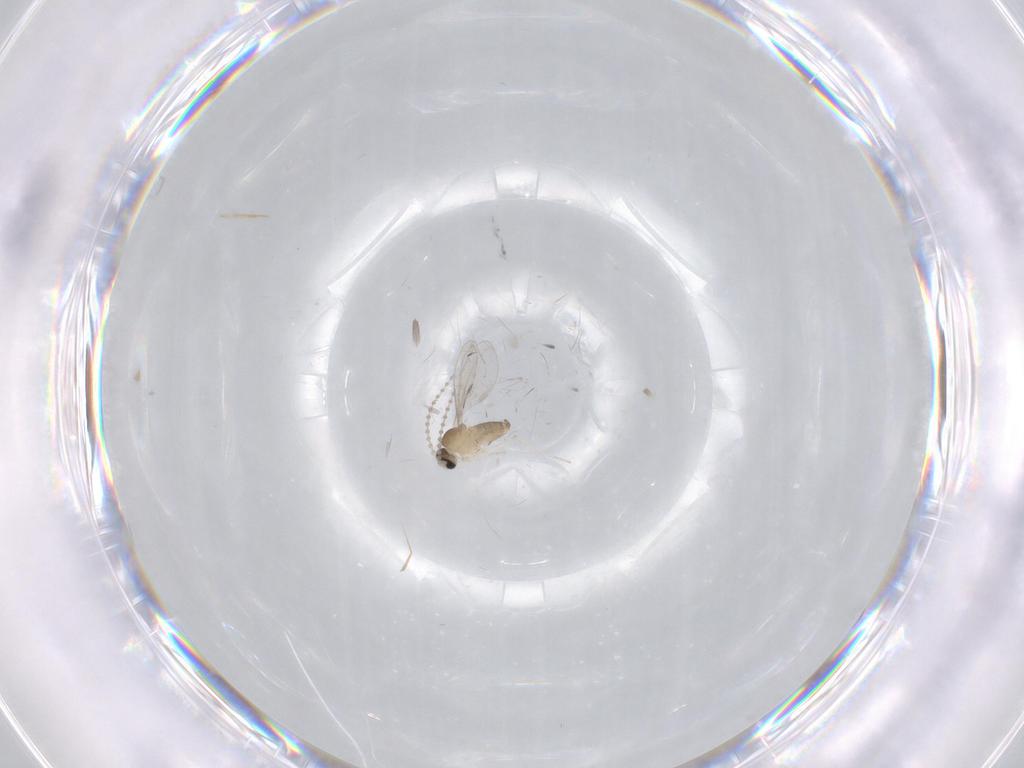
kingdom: Animalia
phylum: Arthropoda
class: Insecta
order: Diptera
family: Cecidomyiidae
